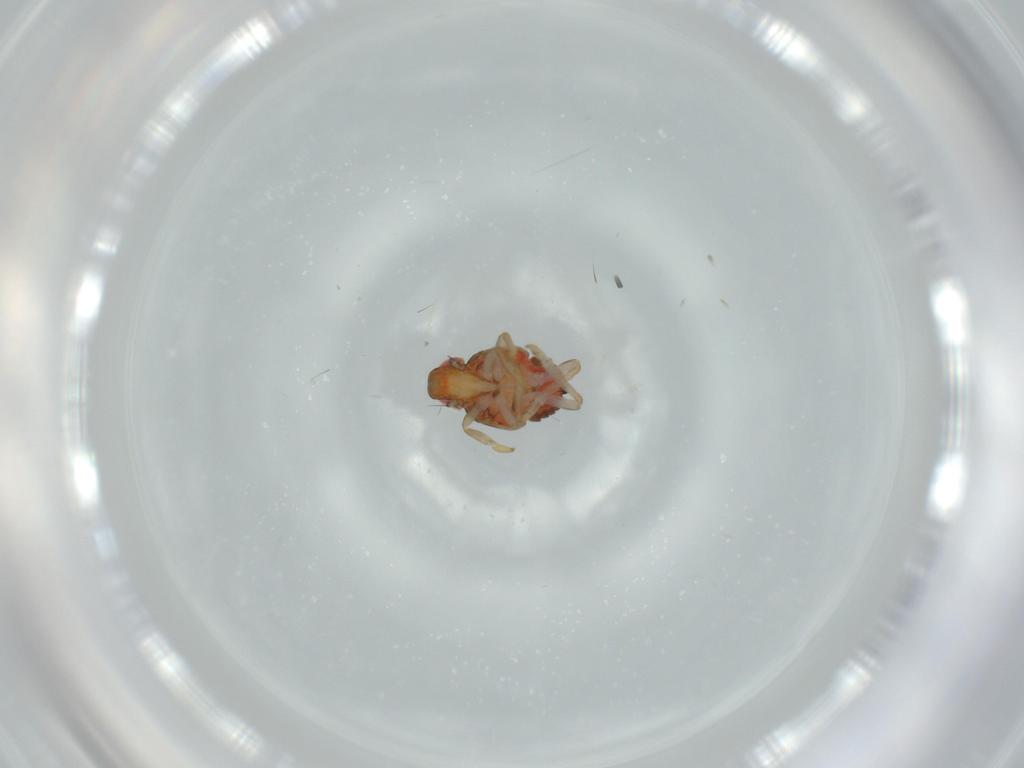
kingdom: Animalia
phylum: Arthropoda
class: Insecta
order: Hemiptera
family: Issidae
